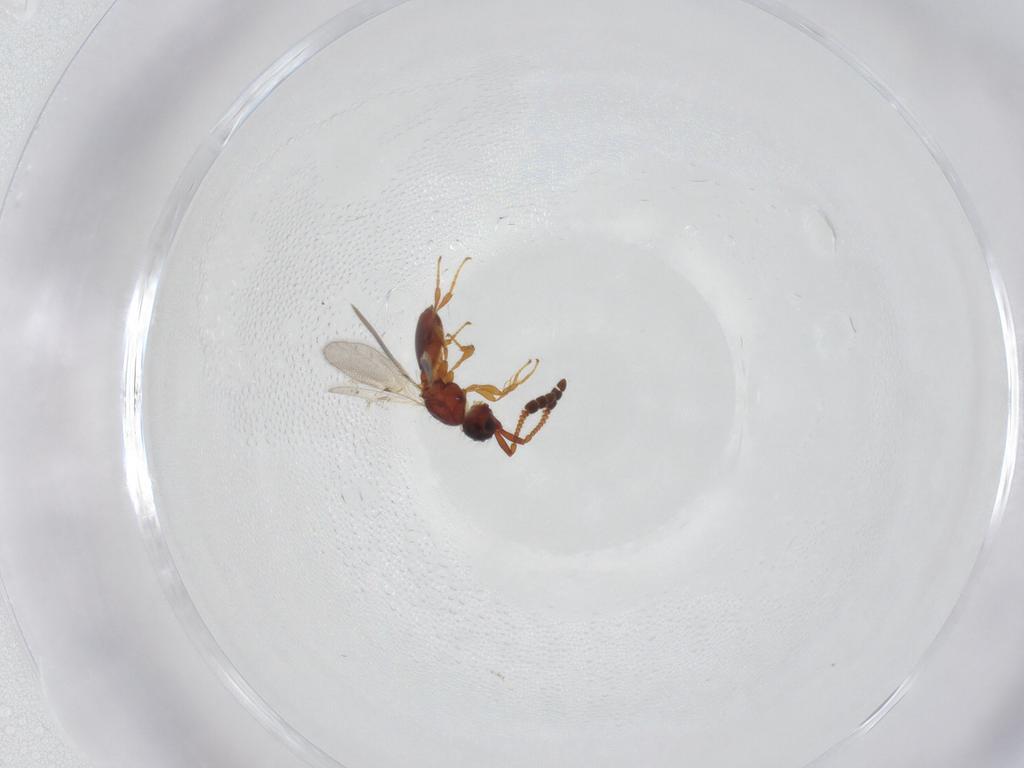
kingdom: Animalia
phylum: Arthropoda
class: Insecta
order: Hymenoptera
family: Diapriidae
